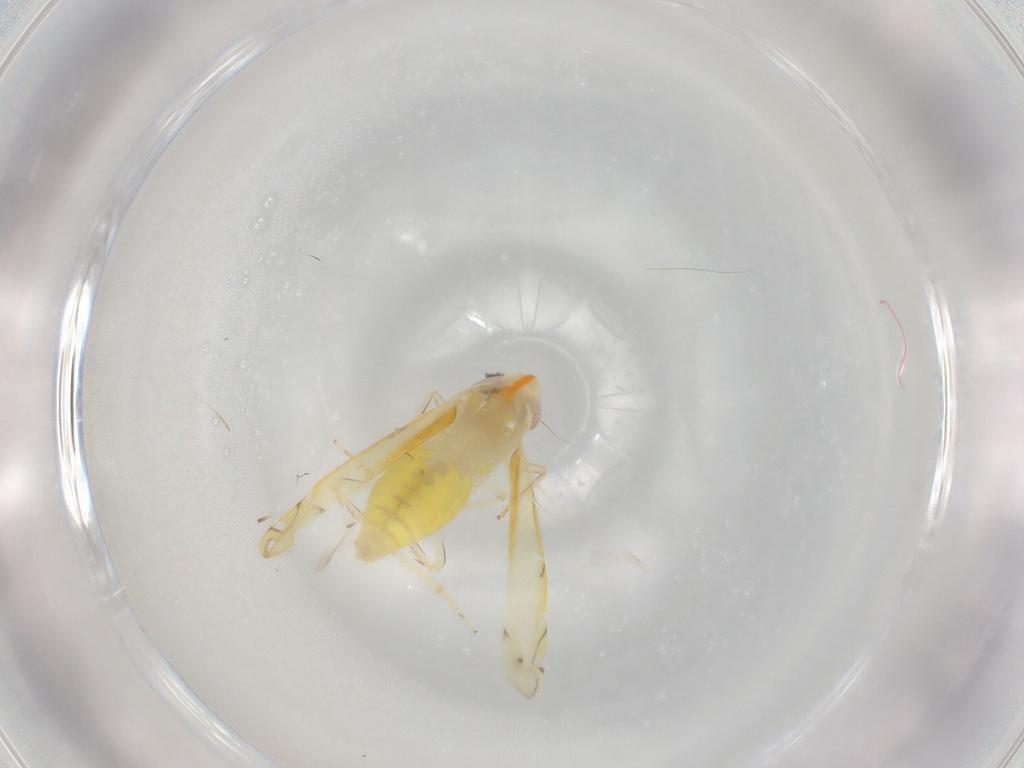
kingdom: Animalia
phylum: Arthropoda
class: Insecta
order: Hemiptera
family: Cicadellidae
